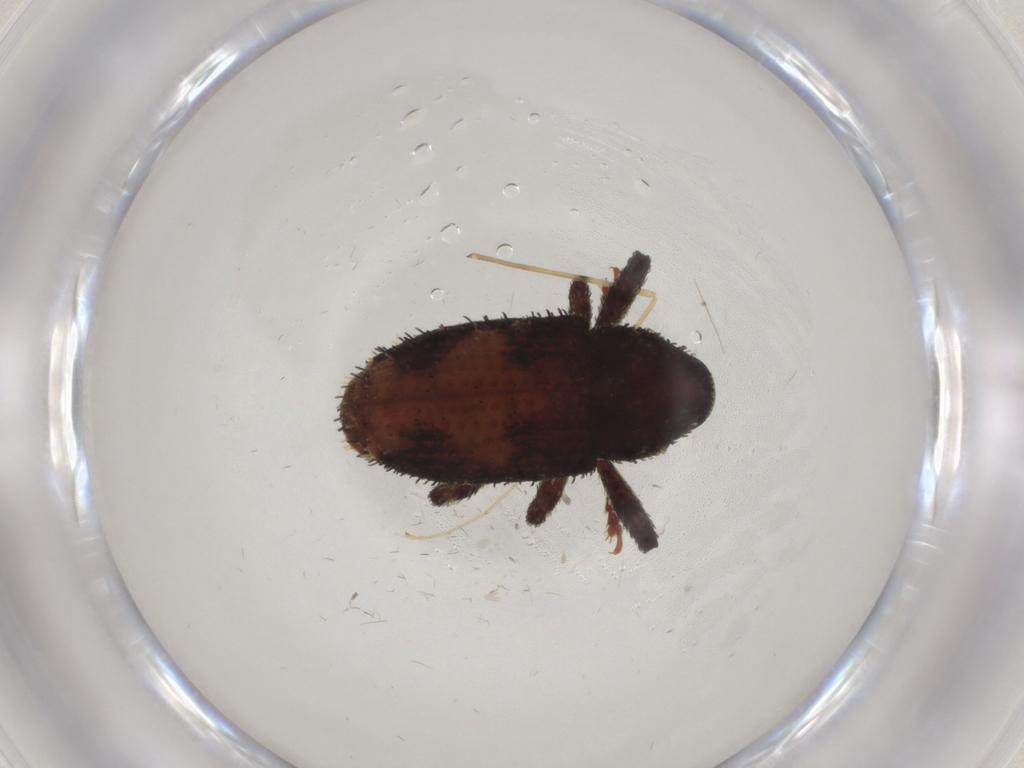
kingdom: Animalia
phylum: Arthropoda
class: Insecta
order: Coleoptera
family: Curculionidae
